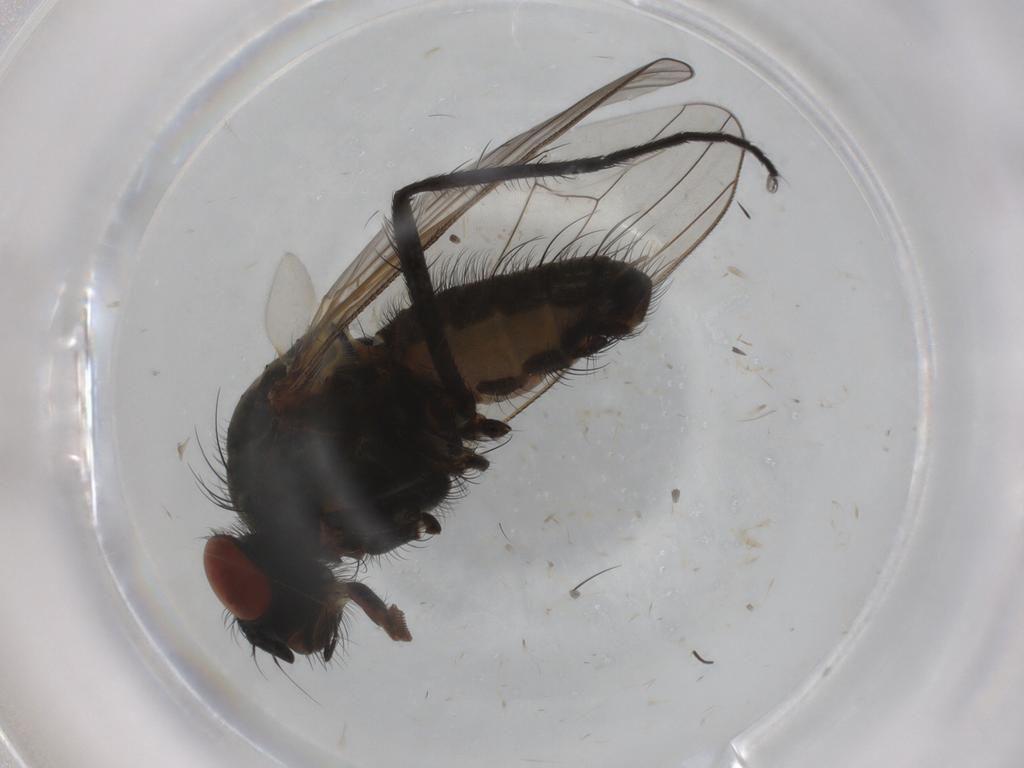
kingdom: Animalia
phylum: Arthropoda
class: Insecta
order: Diptera
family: Anthomyiidae
